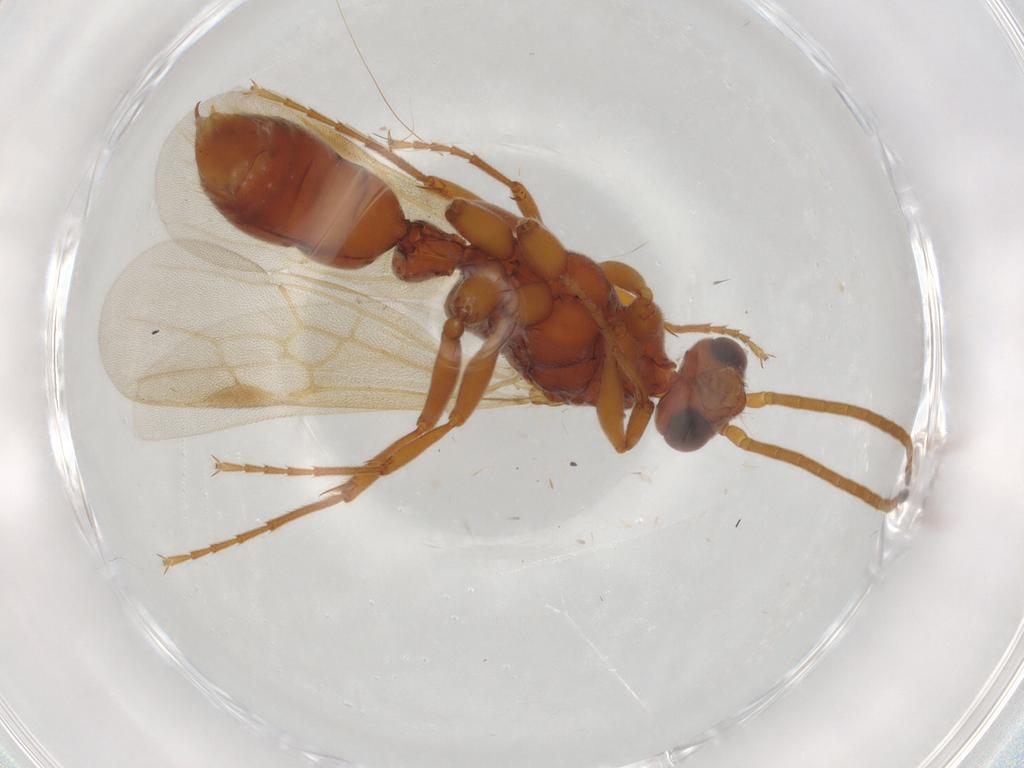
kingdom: Animalia
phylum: Arthropoda
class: Insecta
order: Hymenoptera
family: Formicidae
